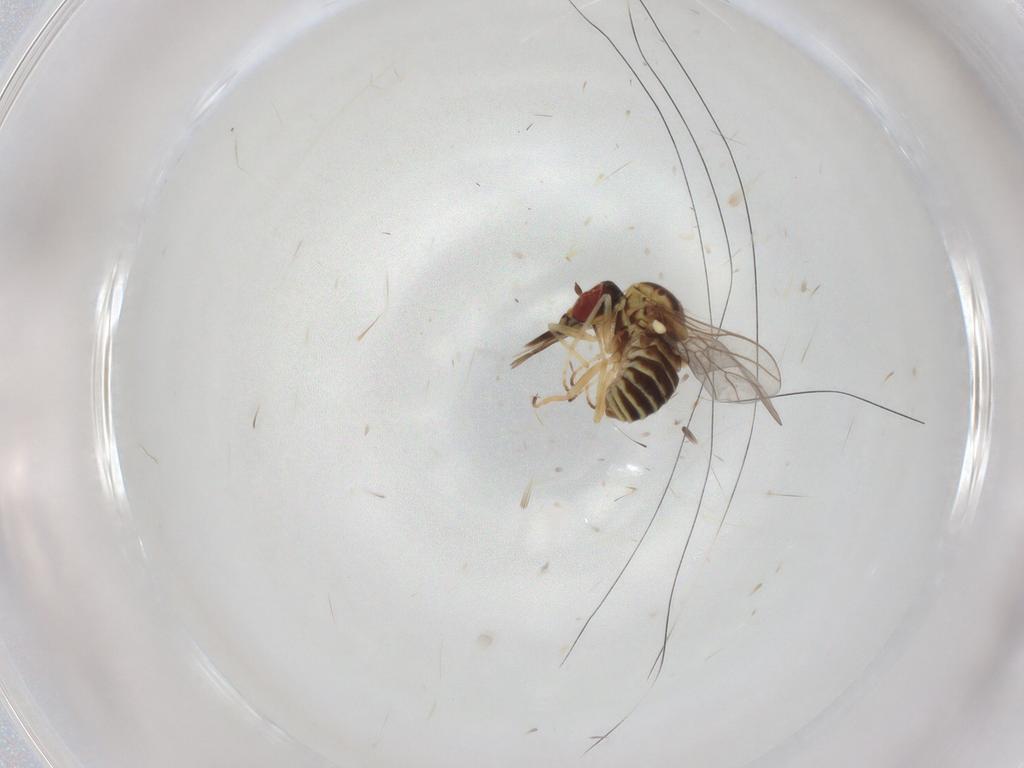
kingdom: Animalia
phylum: Arthropoda
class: Insecta
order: Diptera
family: Bombyliidae
